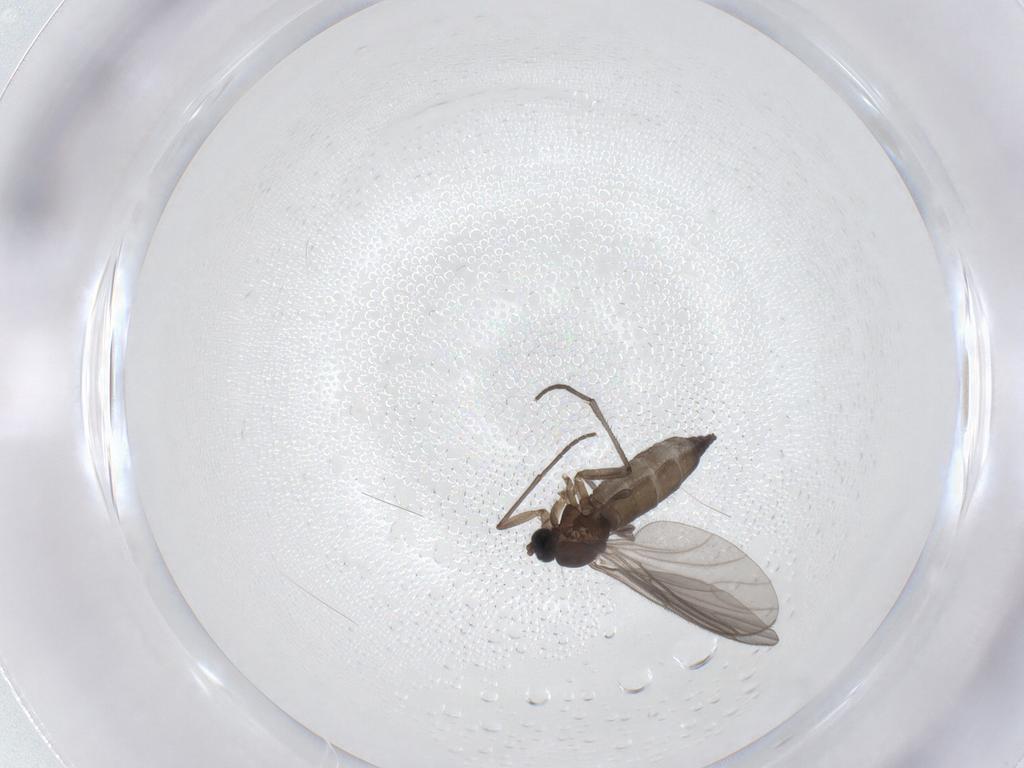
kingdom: Animalia
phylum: Arthropoda
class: Insecta
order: Diptera
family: Sciaridae
